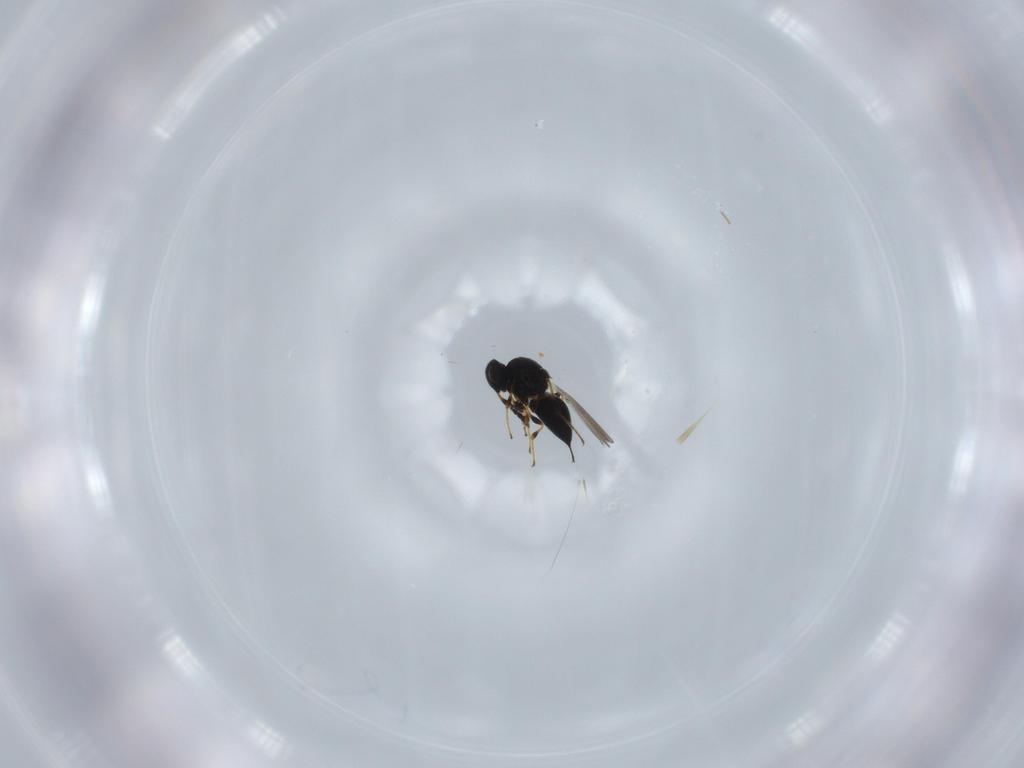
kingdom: Animalia
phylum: Arthropoda
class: Insecta
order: Hymenoptera
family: Platygastridae
